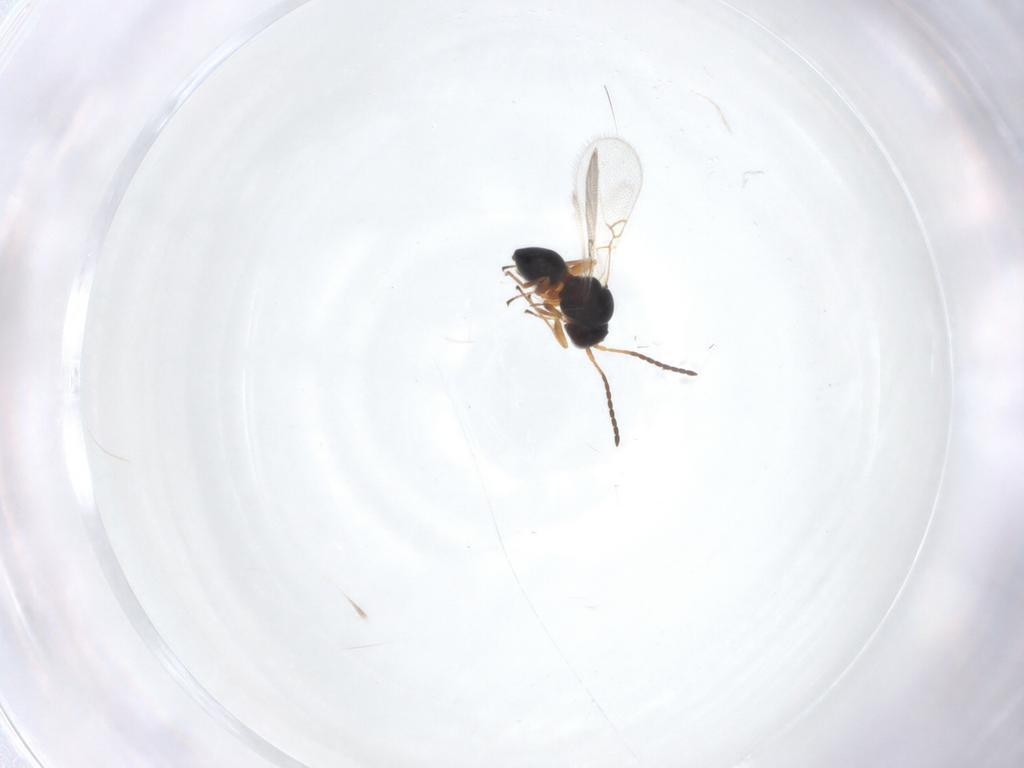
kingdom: Animalia
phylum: Arthropoda
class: Insecta
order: Hymenoptera
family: Figitidae
